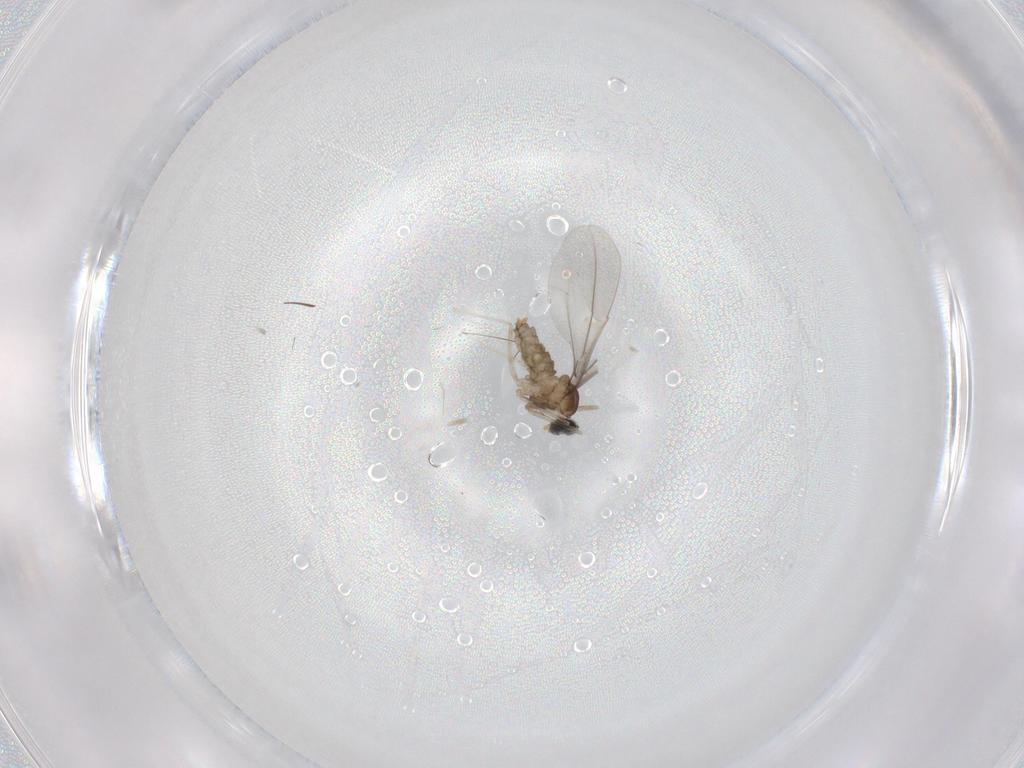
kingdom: Animalia
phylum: Arthropoda
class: Insecta
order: Diptera
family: Cecidomyiidae
